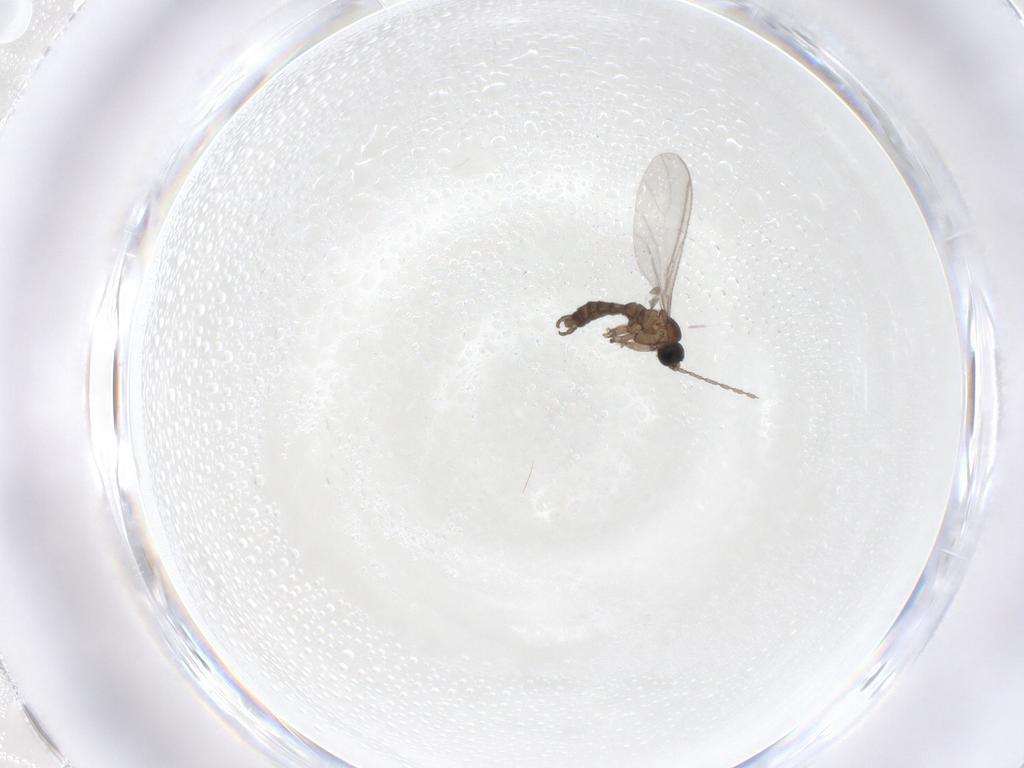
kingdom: Animalia
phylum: Arthropoda
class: Insecta
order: Diptera
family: Sciaridae
